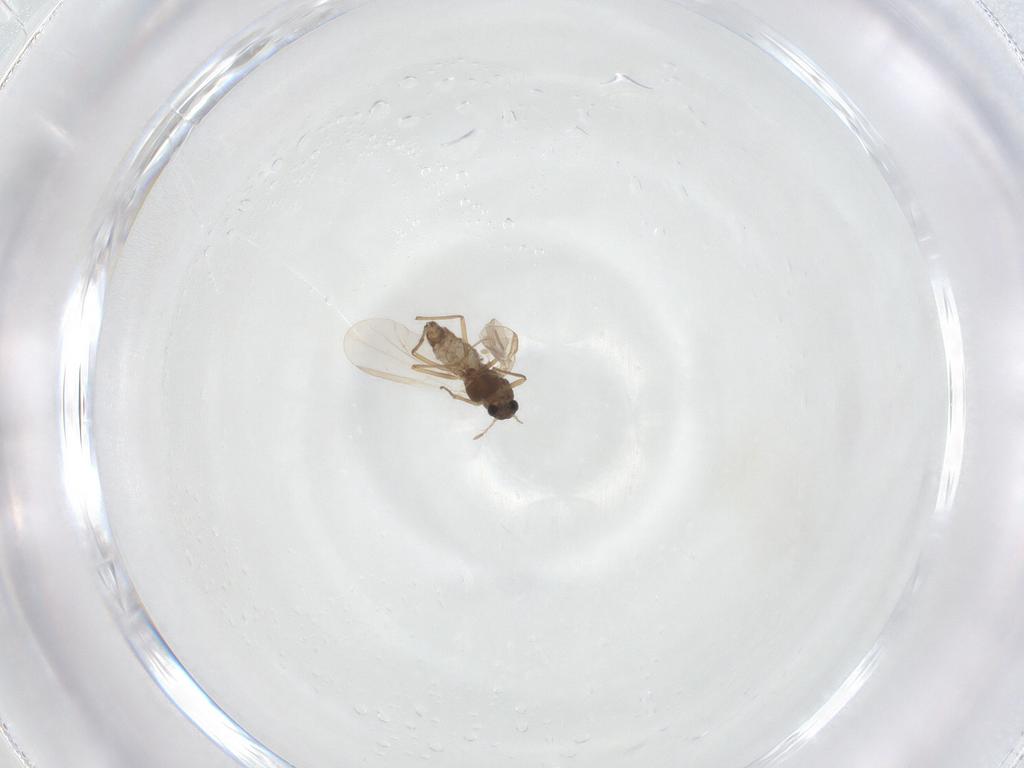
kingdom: Animalia
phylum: Arthropoda
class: Insecta
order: Diptera
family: Chironomidae
